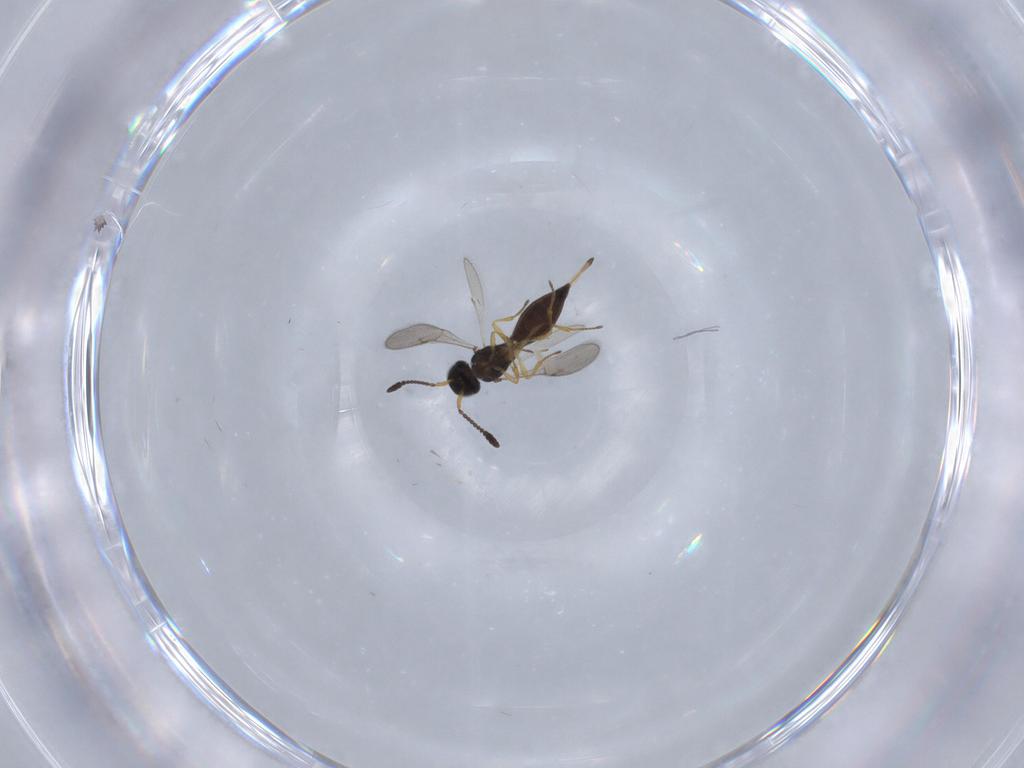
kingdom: Animalia
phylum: Arthropoda
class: Insecta
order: Hymenoptera
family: Scelionidae
